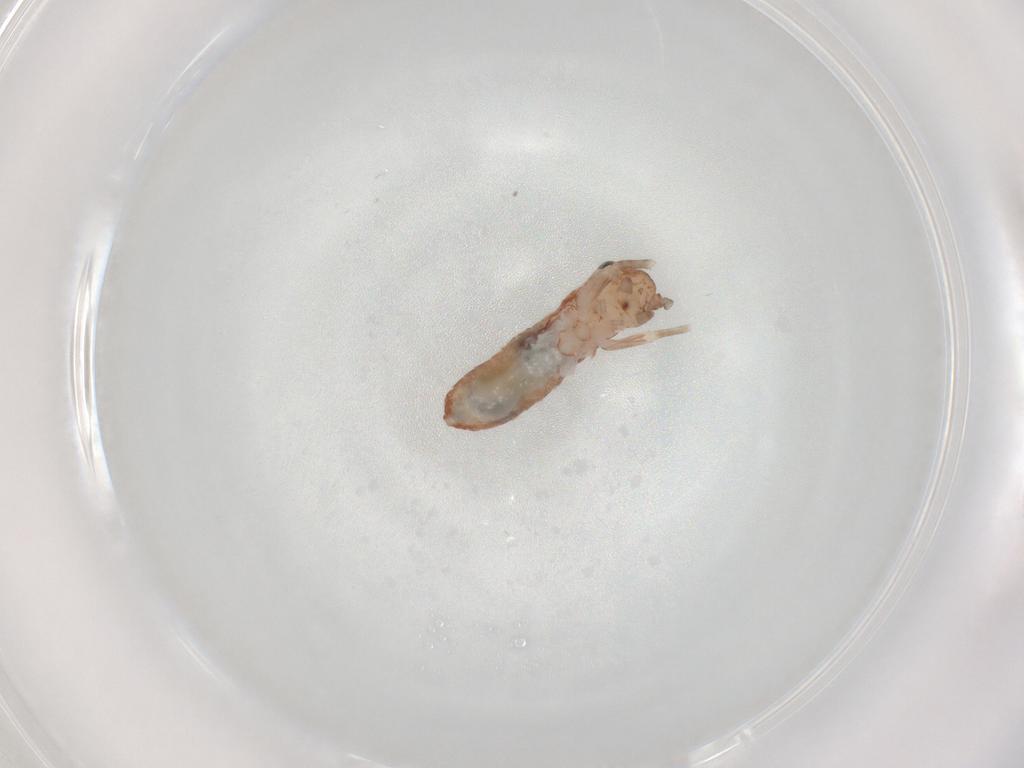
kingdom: Animalia
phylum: Arthropoda
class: Insecta
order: Orthoptera
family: Gryllidae
